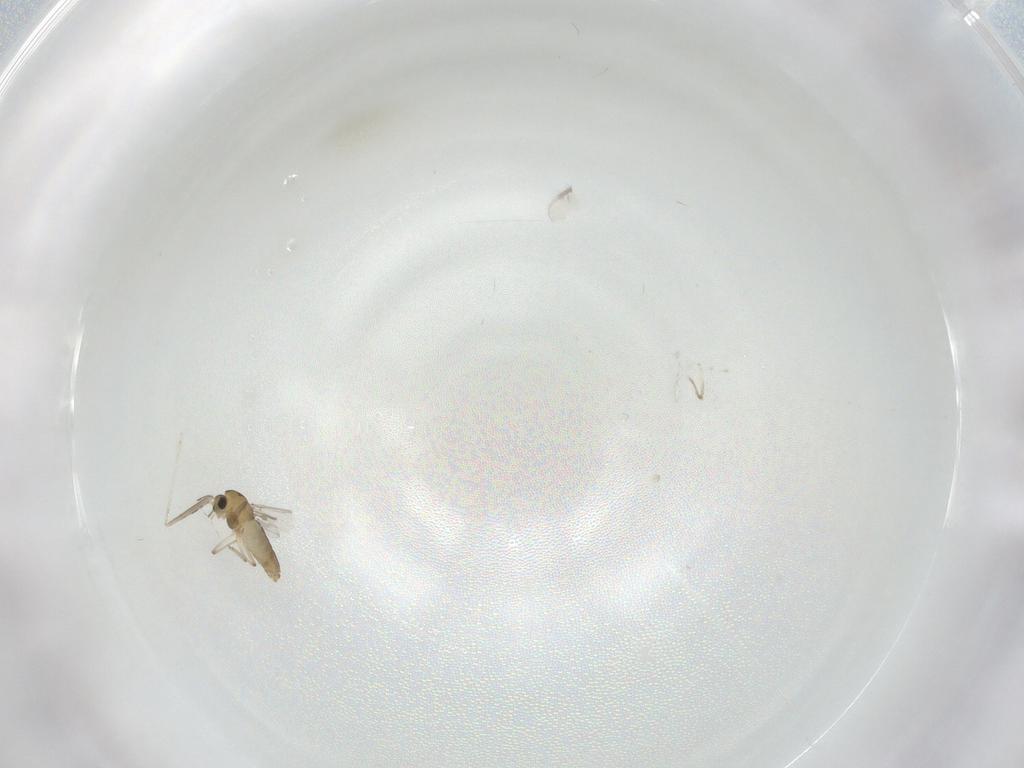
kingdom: Animalia
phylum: Arthropoda
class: Insecta
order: Diptera
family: Chironomidae
